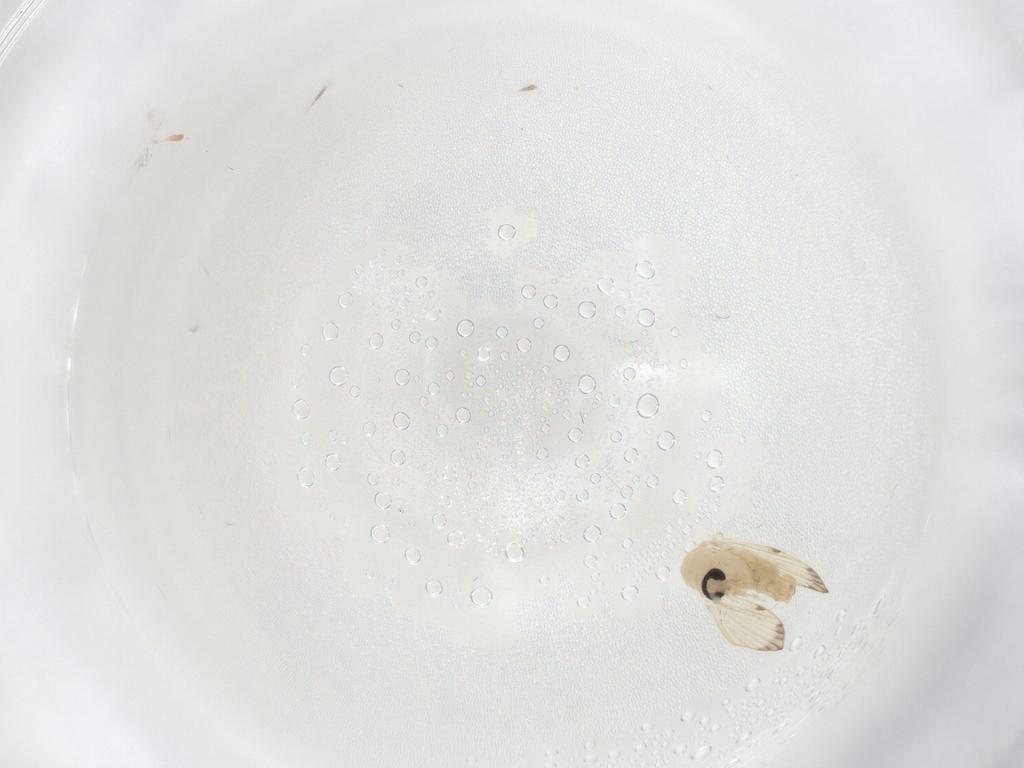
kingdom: Animalia
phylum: Arthropoda
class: Insecta
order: Diptera
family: Psychodidae
